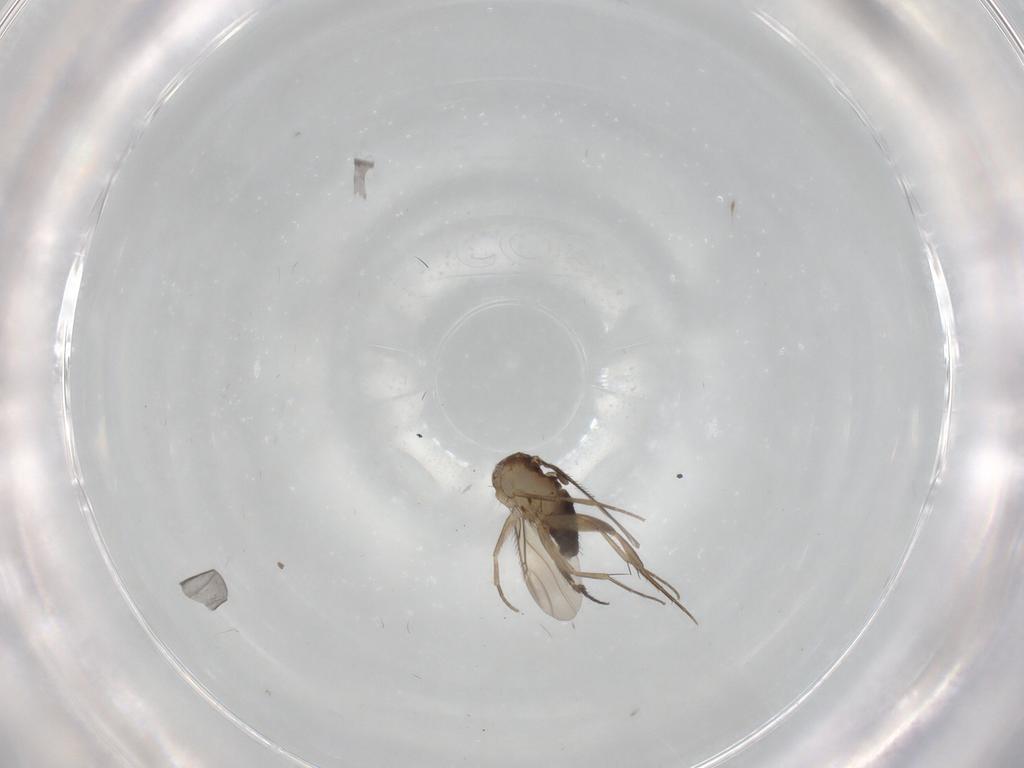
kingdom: Animalia
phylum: Arthropoda
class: Insecta
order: Diptera
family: Phoridae
